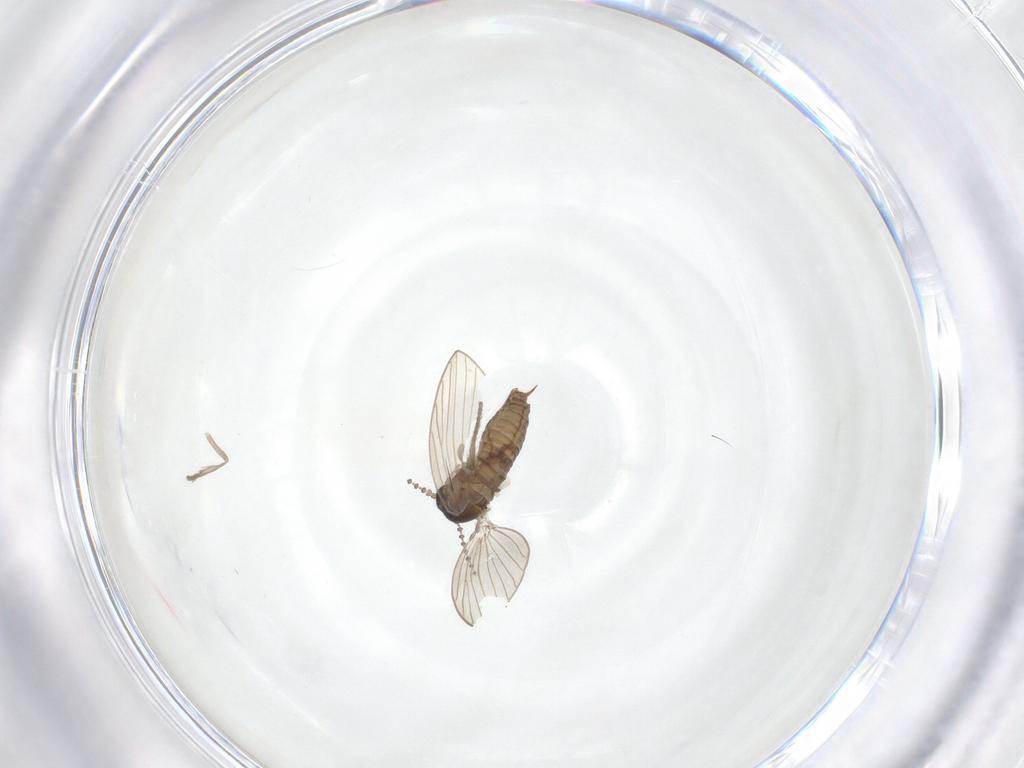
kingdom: Animalia
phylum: Arthropoda
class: Insecta
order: Diptera
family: Psychodidae
